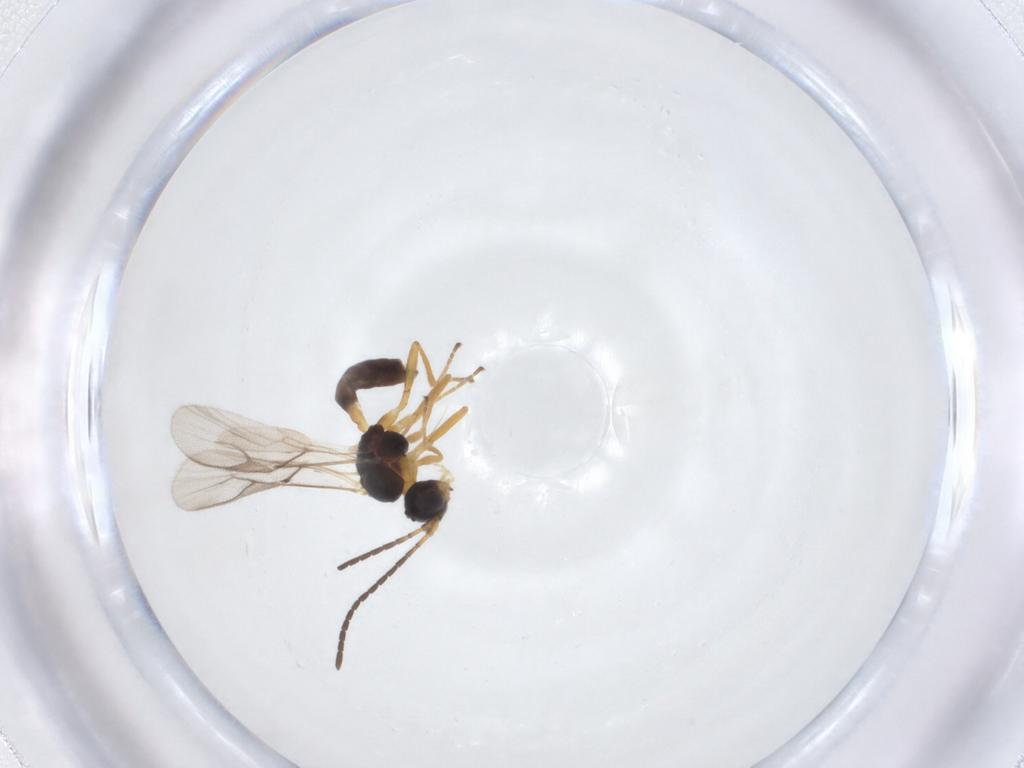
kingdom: Animalia
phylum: Arthropoda
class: Insecta
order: Hymenoptera
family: Braconidae
